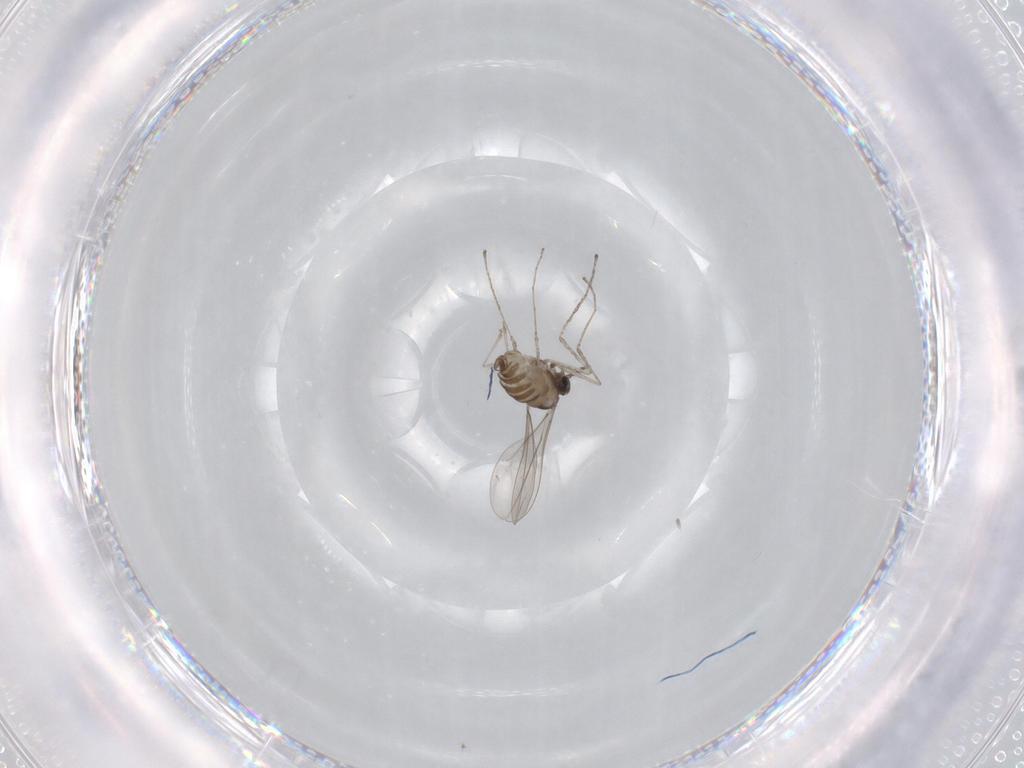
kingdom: Animalia
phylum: Arthropoda
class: Insecta
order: Diptera
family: Chironomidae
